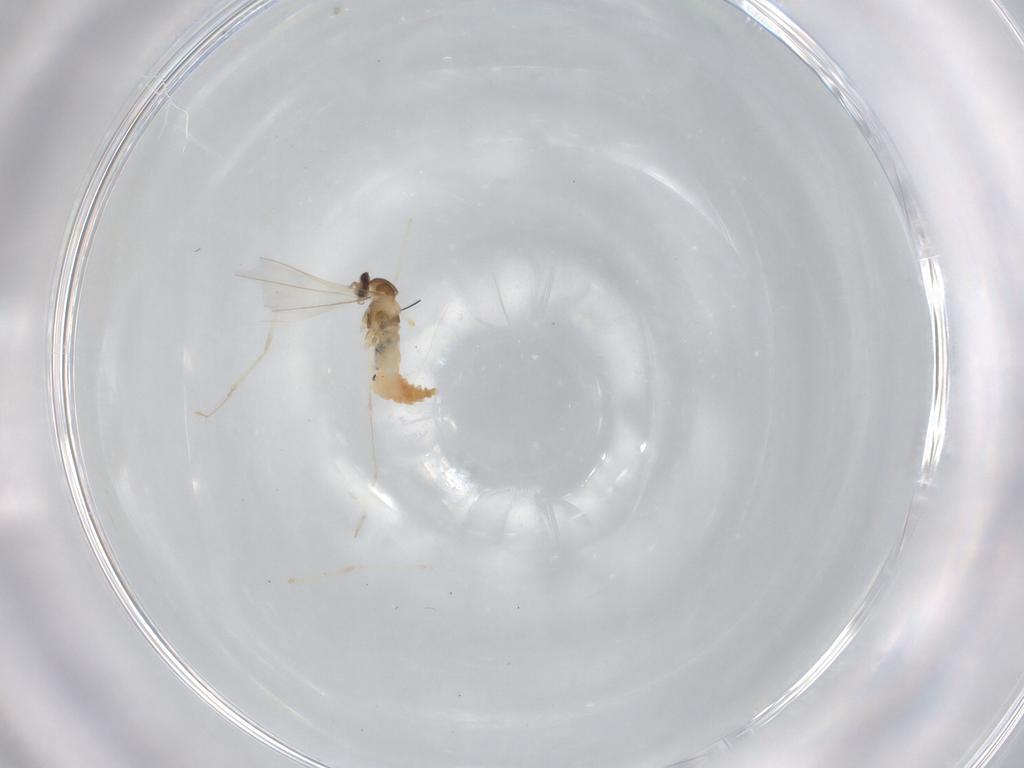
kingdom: Animalia
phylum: Arthropoda
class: Insecta
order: Diptera
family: Cecidomyiidae
